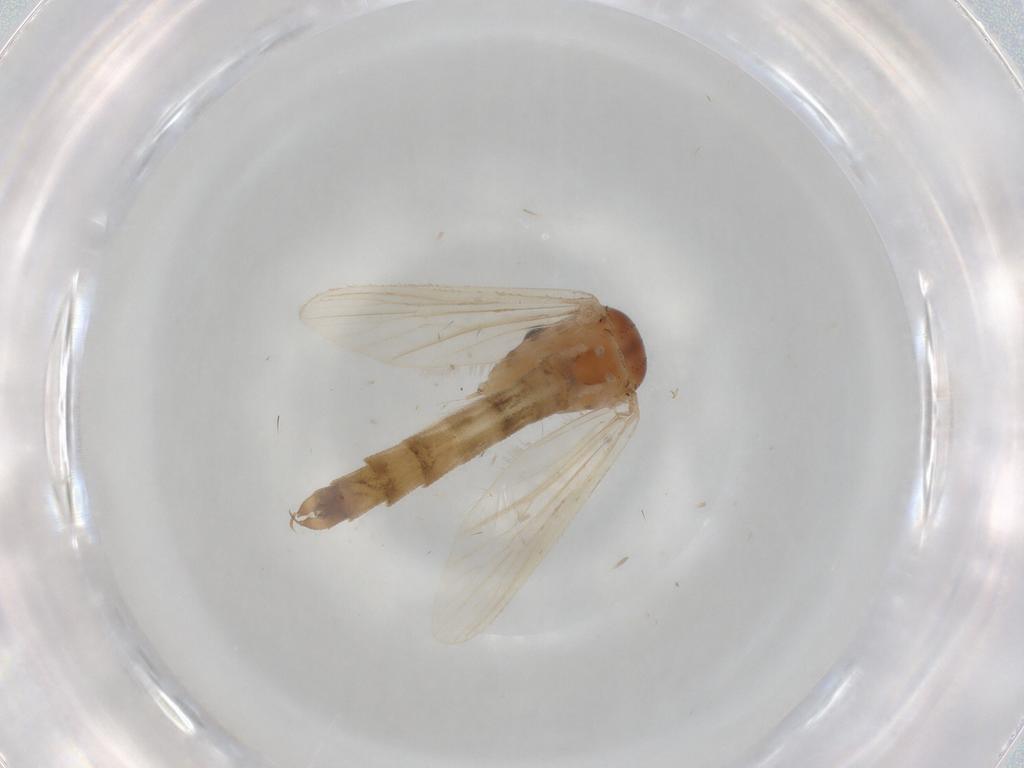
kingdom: Animalia
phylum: Arthropoda
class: Insecta
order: Diptera
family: Culicidae
